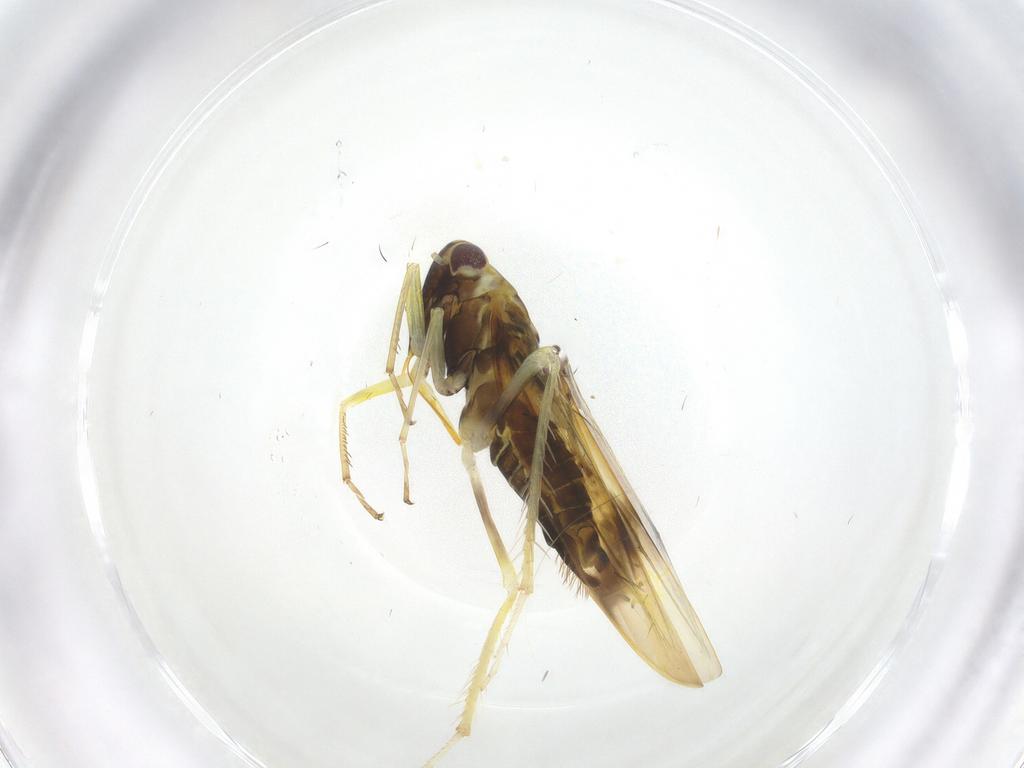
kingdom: Animalia
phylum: Arthropoda
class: Insecta
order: Hemiptera
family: Cicadellidae
